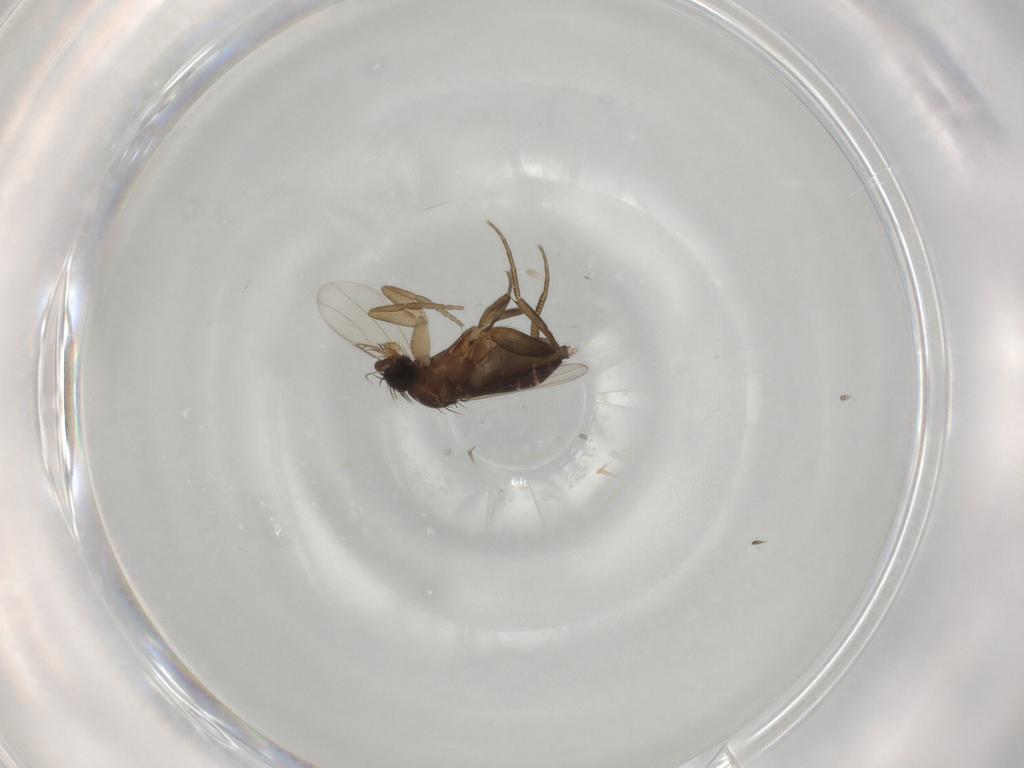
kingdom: Animalia
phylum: Arthropoda
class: Insecta
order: Diptera
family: Phoridae
